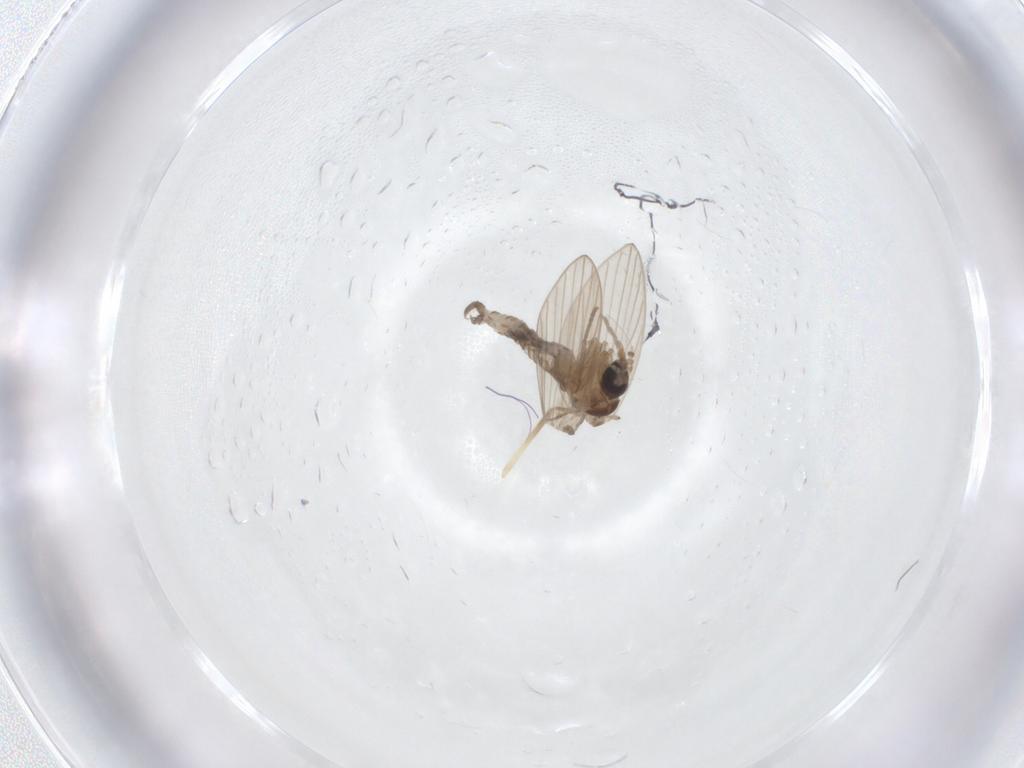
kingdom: Animalia
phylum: Arthropoda
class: Insecta
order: Diptera
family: Psychodidae
